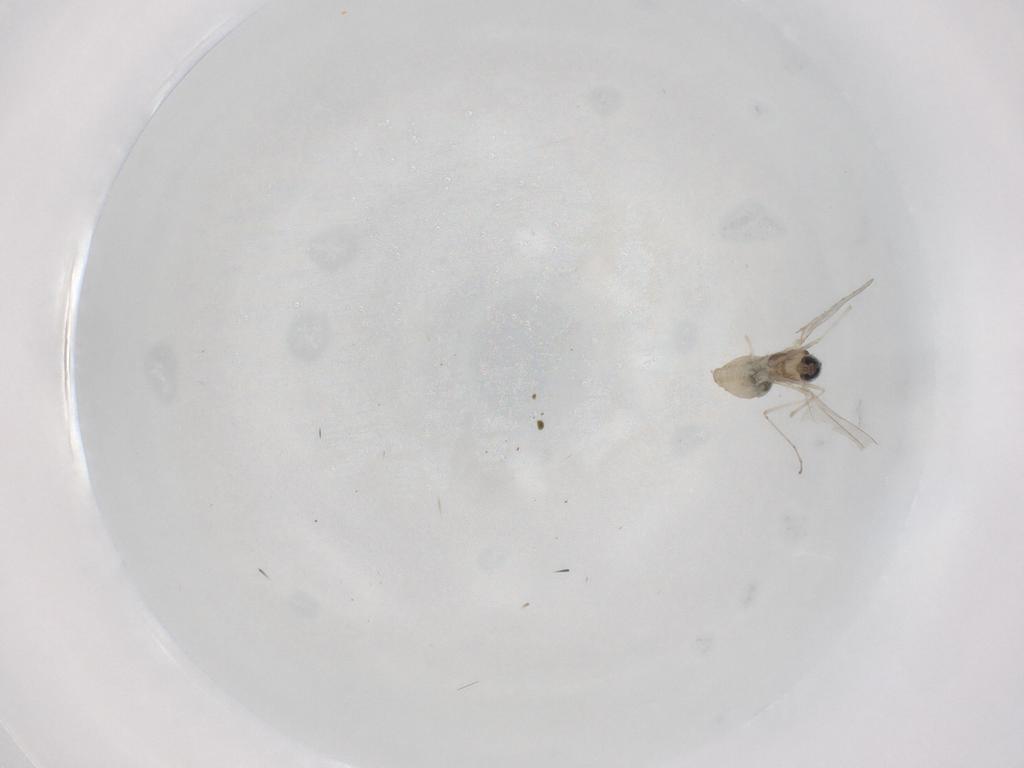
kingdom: Animalia
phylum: Arthropoda
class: Insecta
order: Diptera
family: Cecidomyiidae
